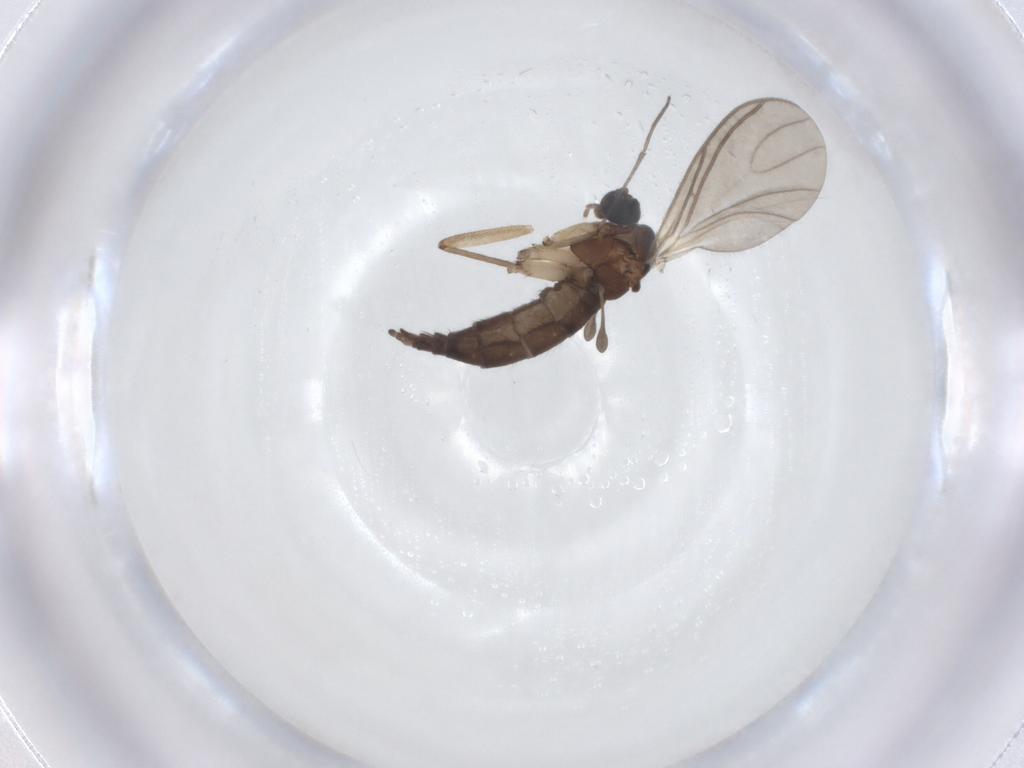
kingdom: Animalia
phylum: Arthropoda
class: Insecta
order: Diptera
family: Sciaridae
